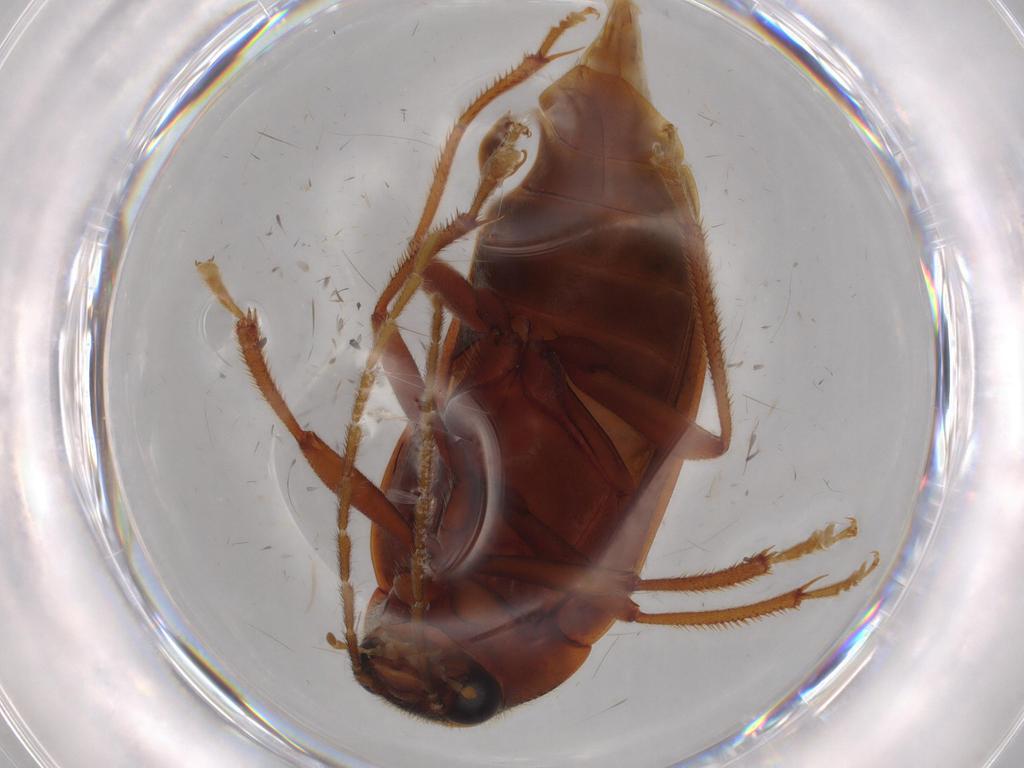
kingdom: Animalia
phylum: Arthropoda
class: Insecta
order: Coleoptera
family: Ptilodactylidae
